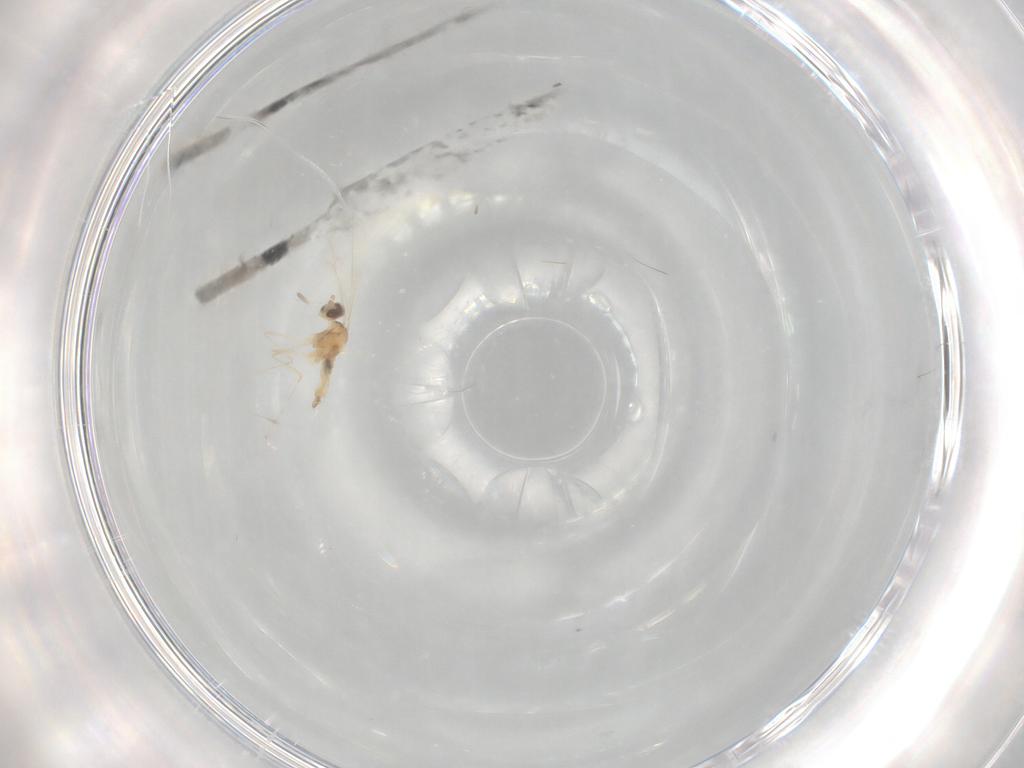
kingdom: Animalia
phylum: Arthropoda
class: Insecta
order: Diptera
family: Cecidomyiidae
